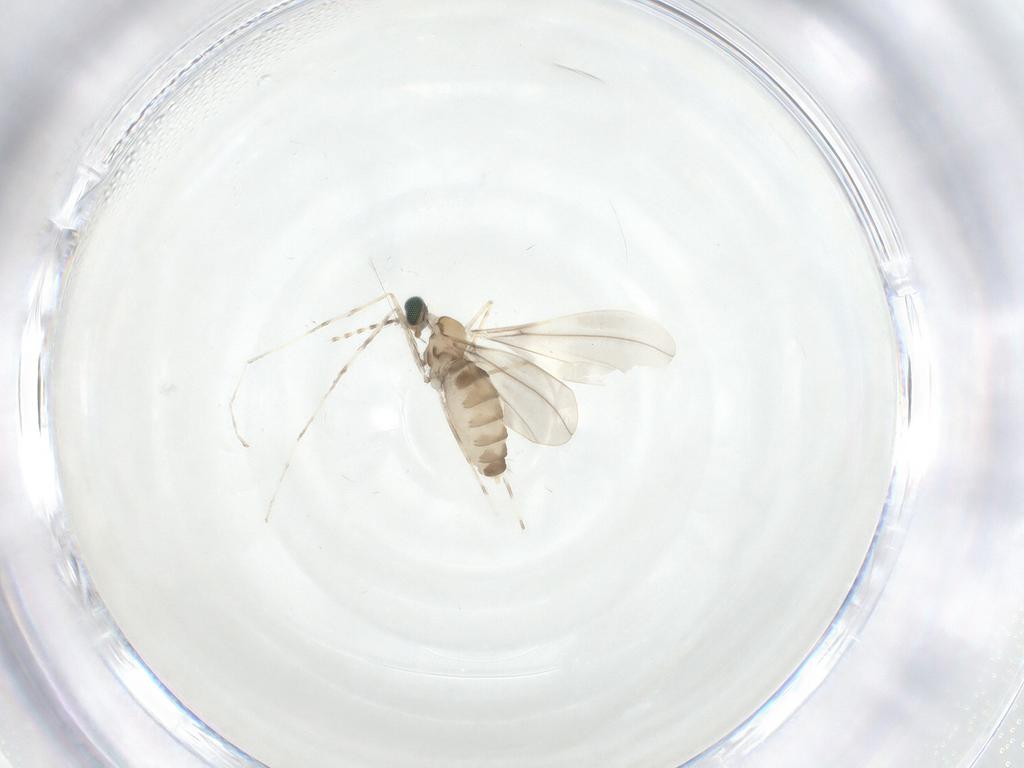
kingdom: Animalia
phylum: Arthropoda
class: Insecta
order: Diptera
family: Cecidomyiidae
